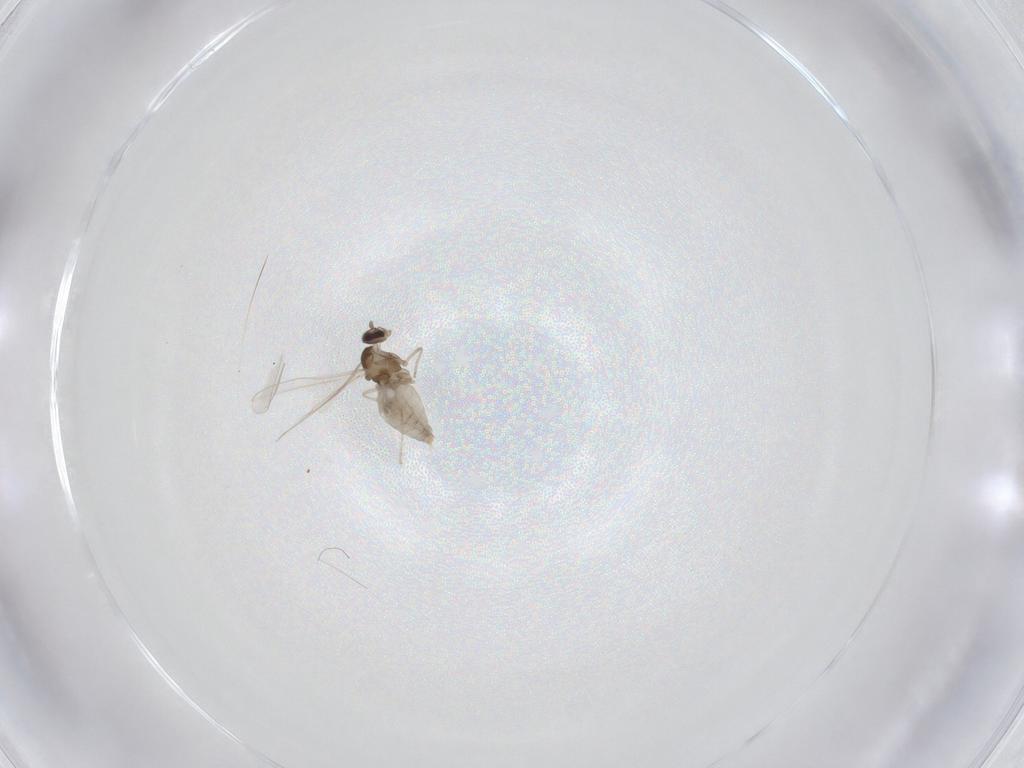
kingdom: Animalia
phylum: Arthropoda
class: Insecta
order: Diptera
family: Cecidomyiidae
